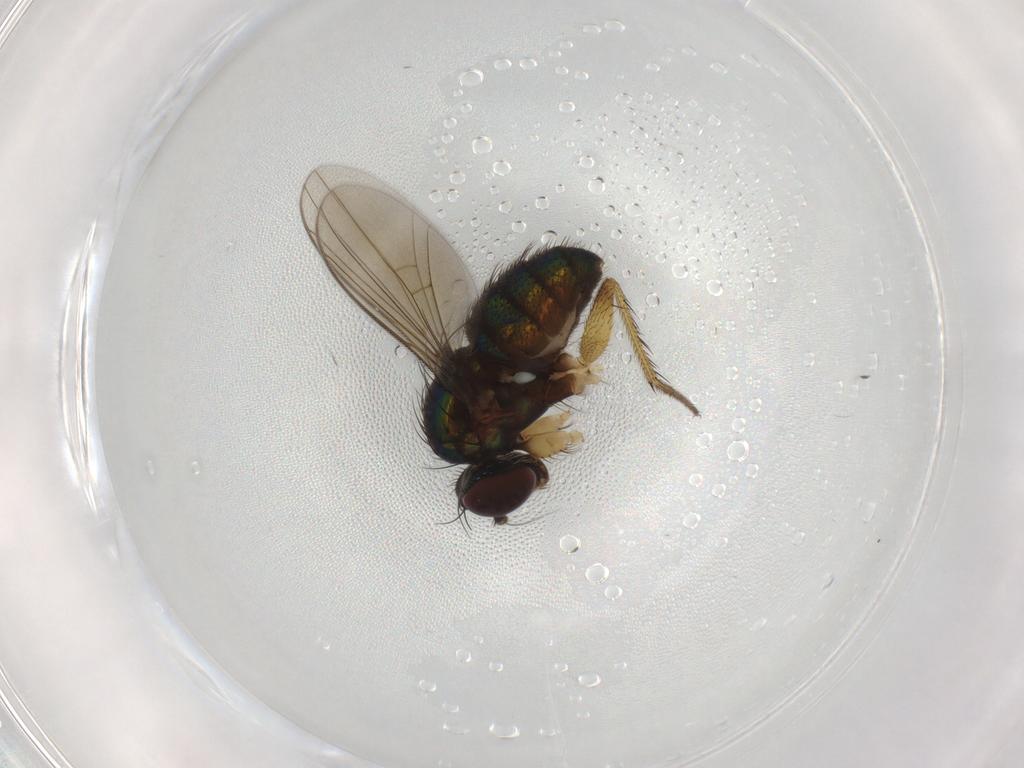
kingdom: Animalia
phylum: Arthropoda
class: Insecta
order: Diptera
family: Dolichopodidae
